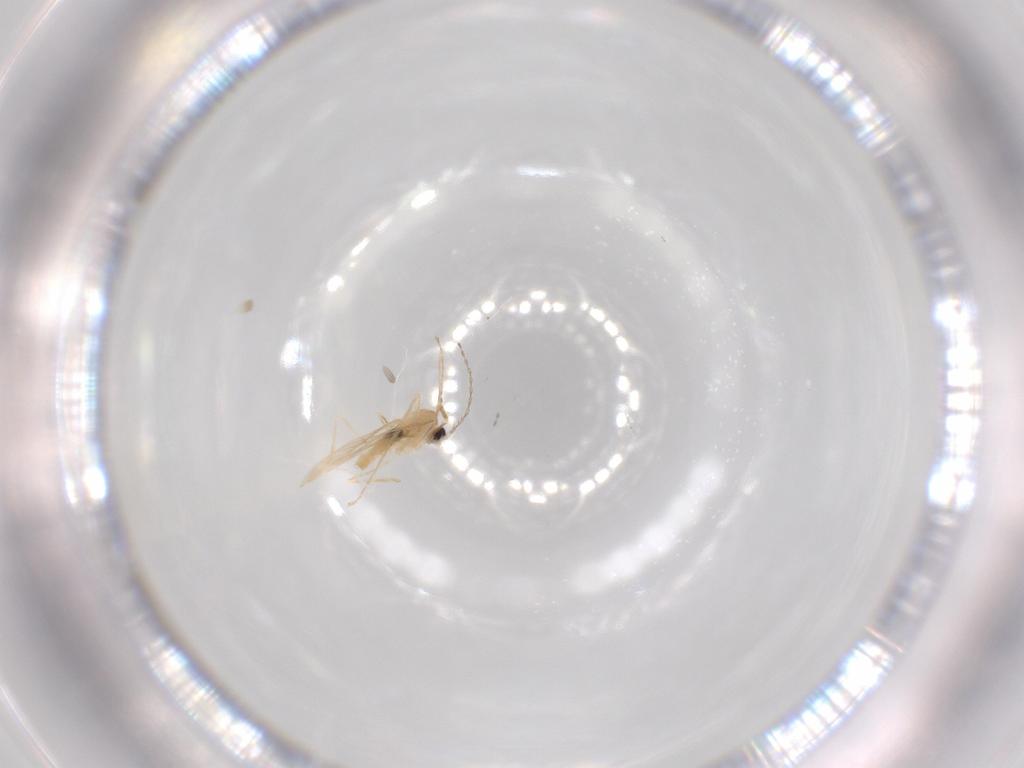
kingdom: Animalia
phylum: Arthropoda
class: Insecta
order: Diptera
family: Cecidomyiidae
